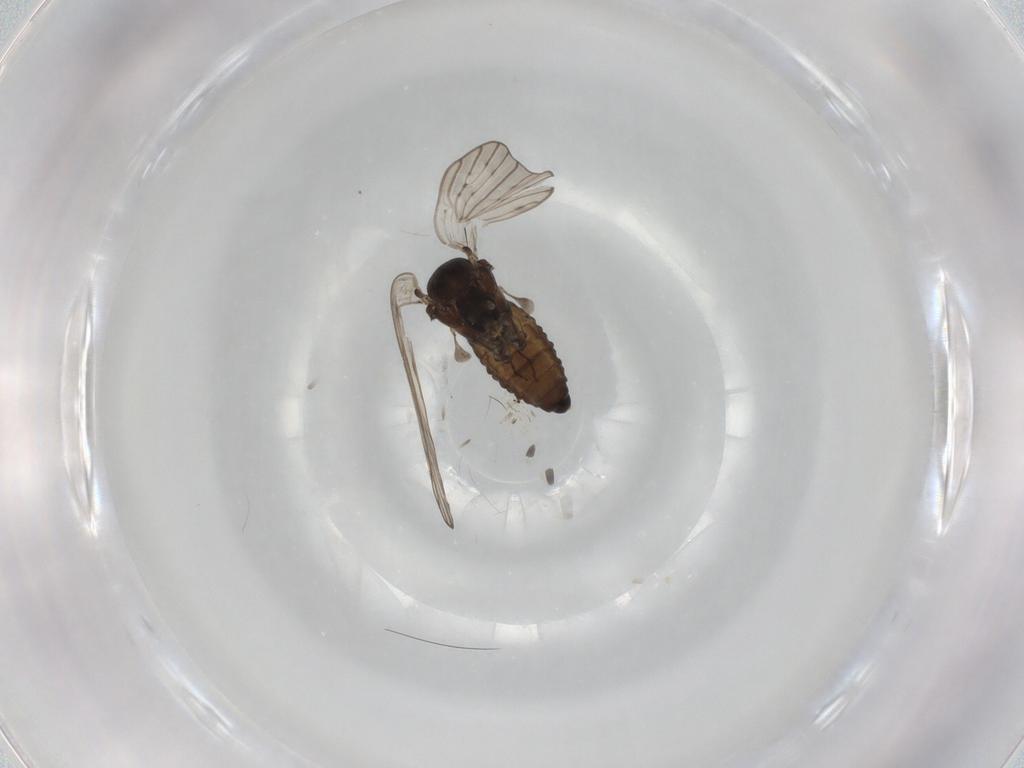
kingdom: Animalia
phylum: Arthropoda
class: Insecta
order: Diptera
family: Psychodidae
